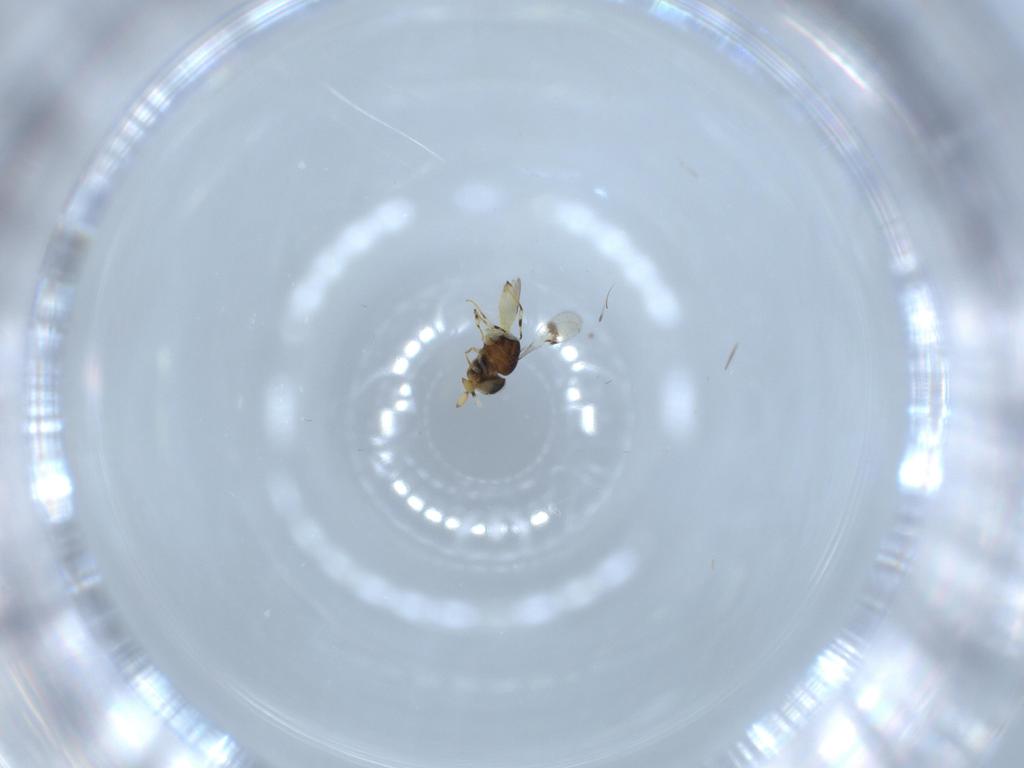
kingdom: Animalia
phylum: Arthropoda
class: Insecta
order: Hymenoptera
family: Scelionidae
